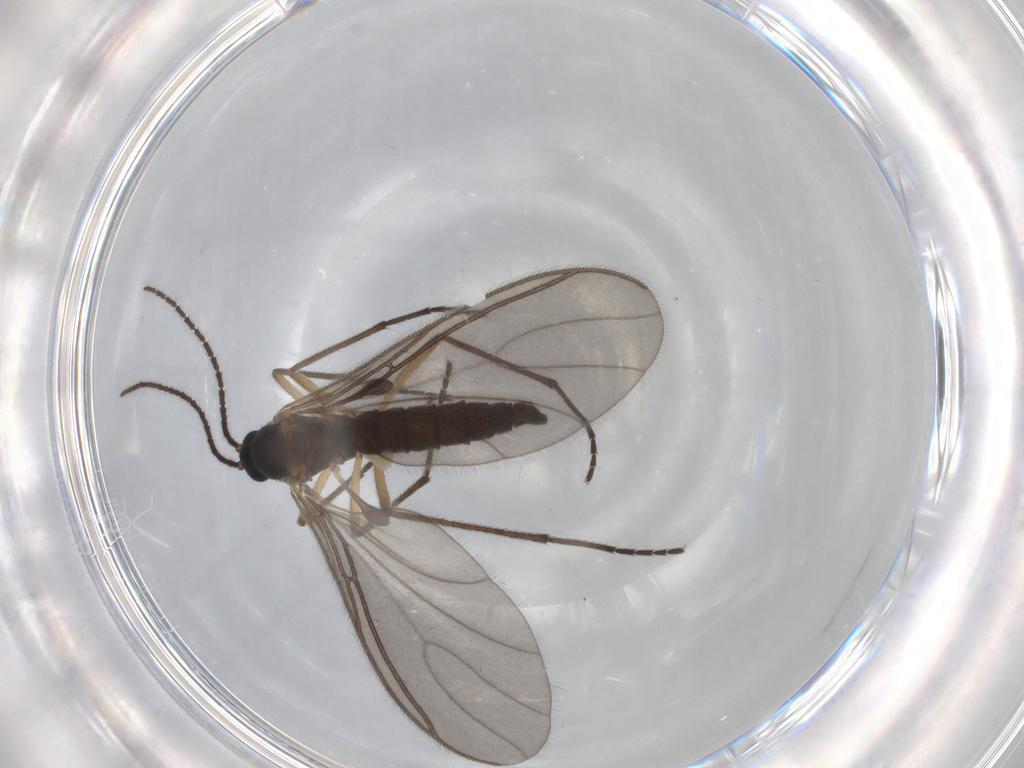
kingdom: Animalia
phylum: Arthropoda
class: Insecta
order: Diptera
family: Sciaridae
